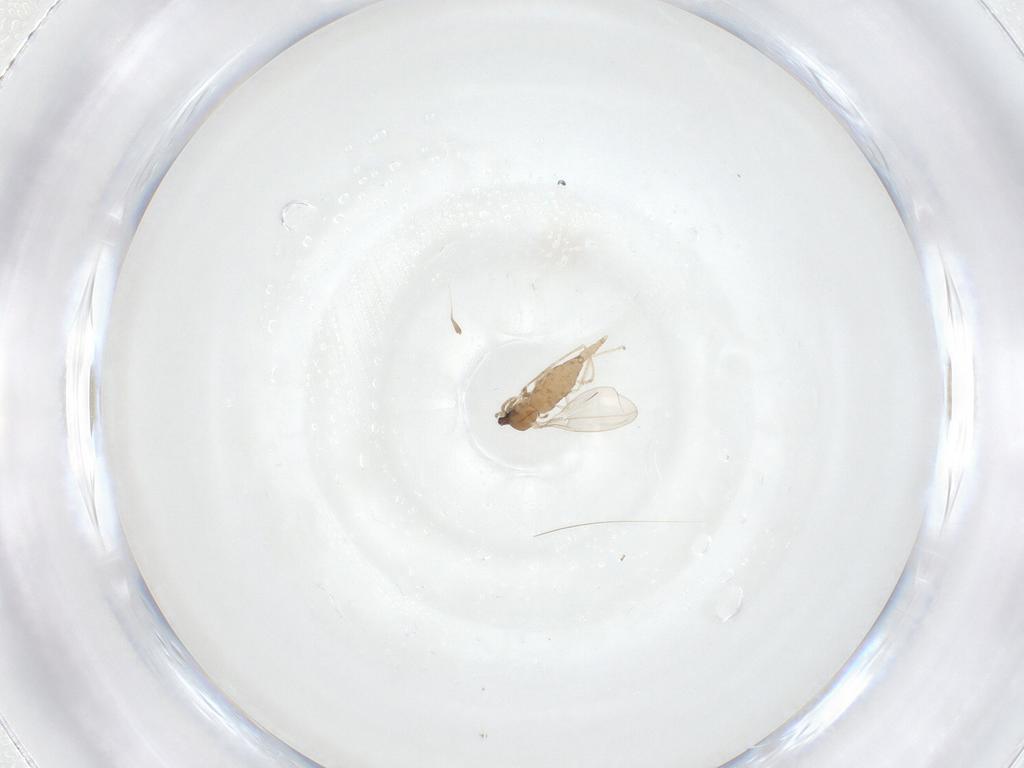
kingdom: Animalia
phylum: Arthropoda
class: Insecta
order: Diptera
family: Cecidomyiidae
